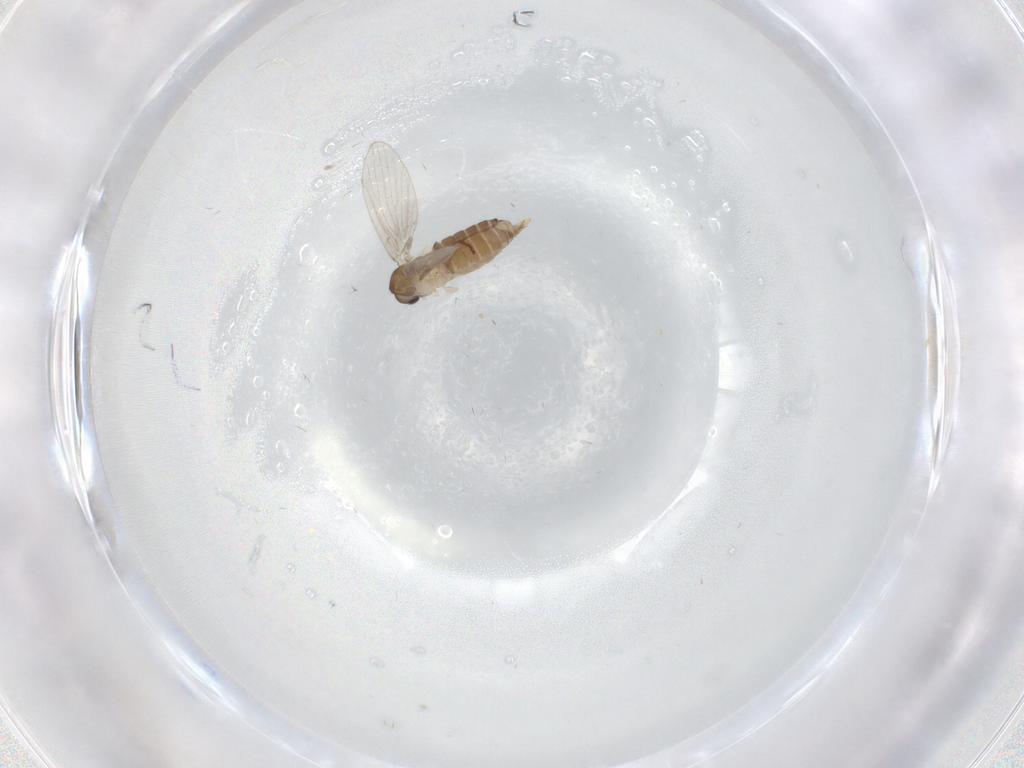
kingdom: Animalia
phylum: Arthropoda
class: Insecta
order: Diptera
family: Psychodidae
